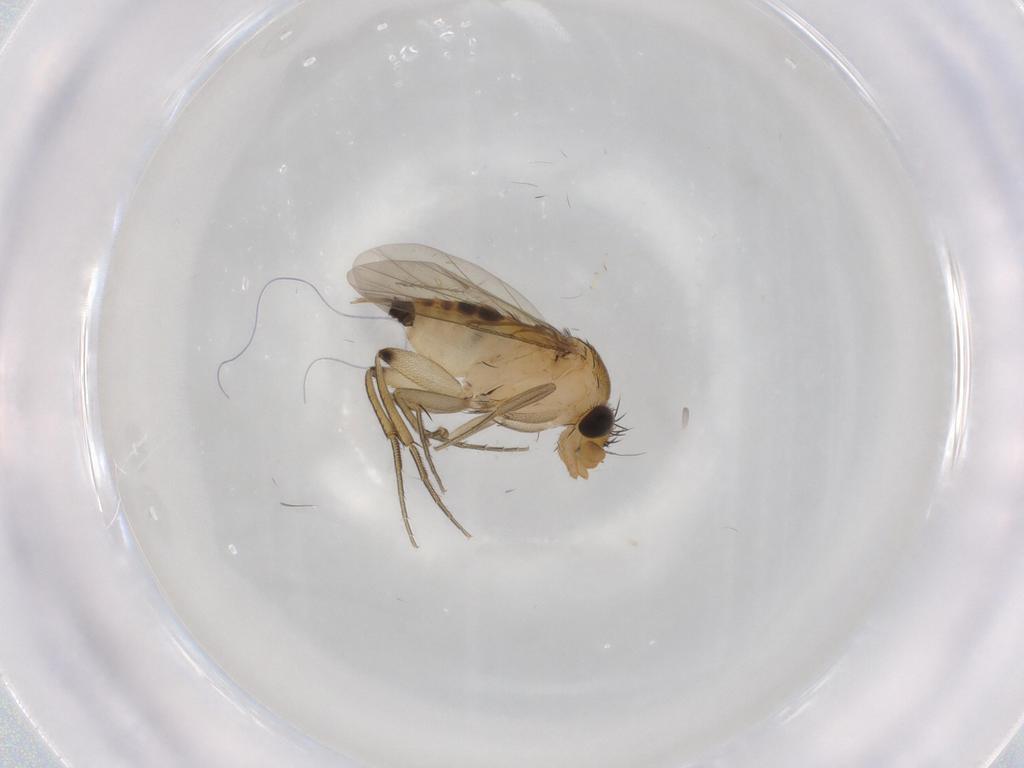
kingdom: Animalia
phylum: Arthropoda
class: Insecta
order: Diptera
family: Phoridae
